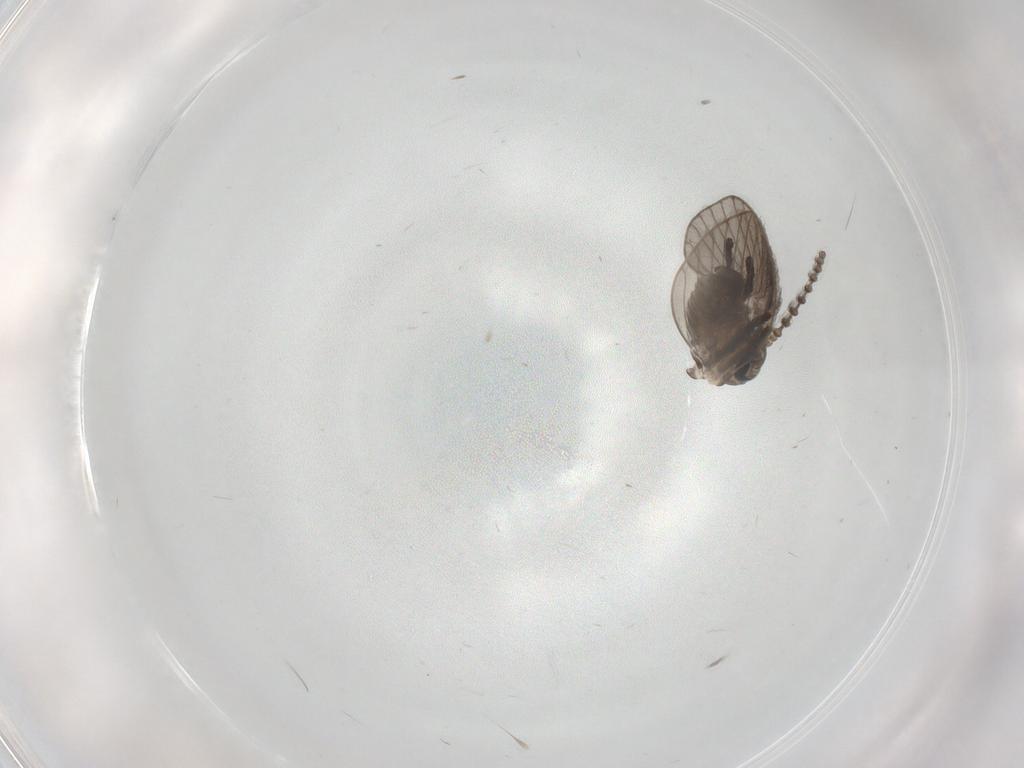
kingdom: Animalia
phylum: Arthropoda
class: Insecta
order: Diptera
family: Psychodidae
